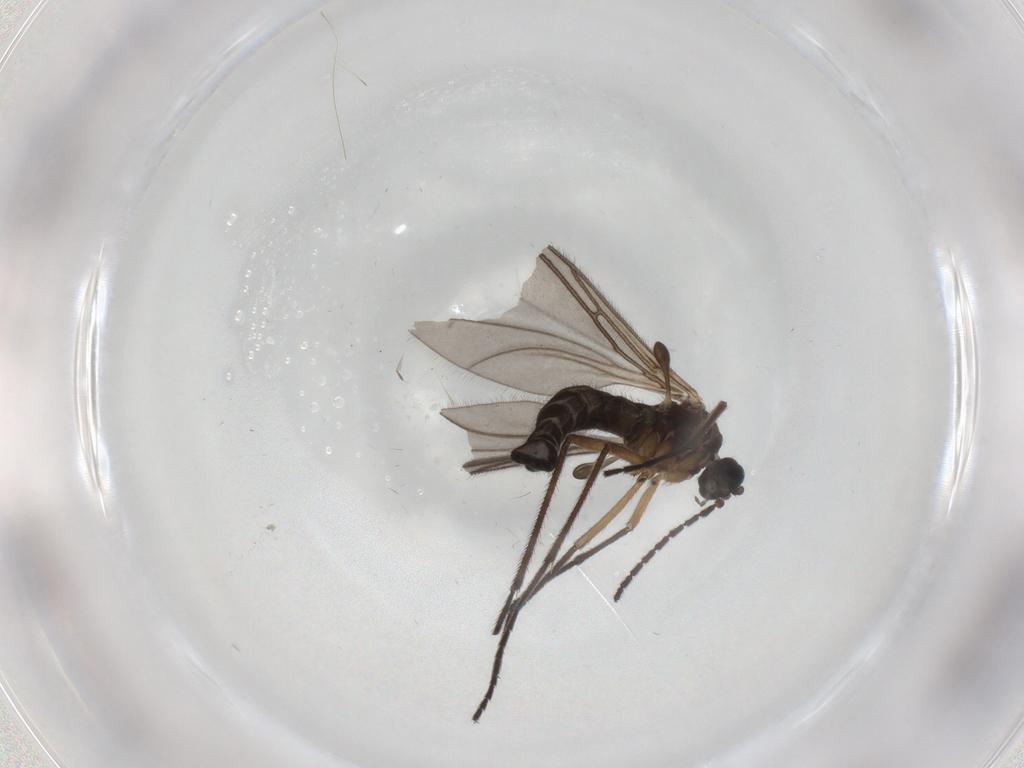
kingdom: Animalia
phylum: Arthropoda
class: Insecta
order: Diptera
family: Sciaridae
